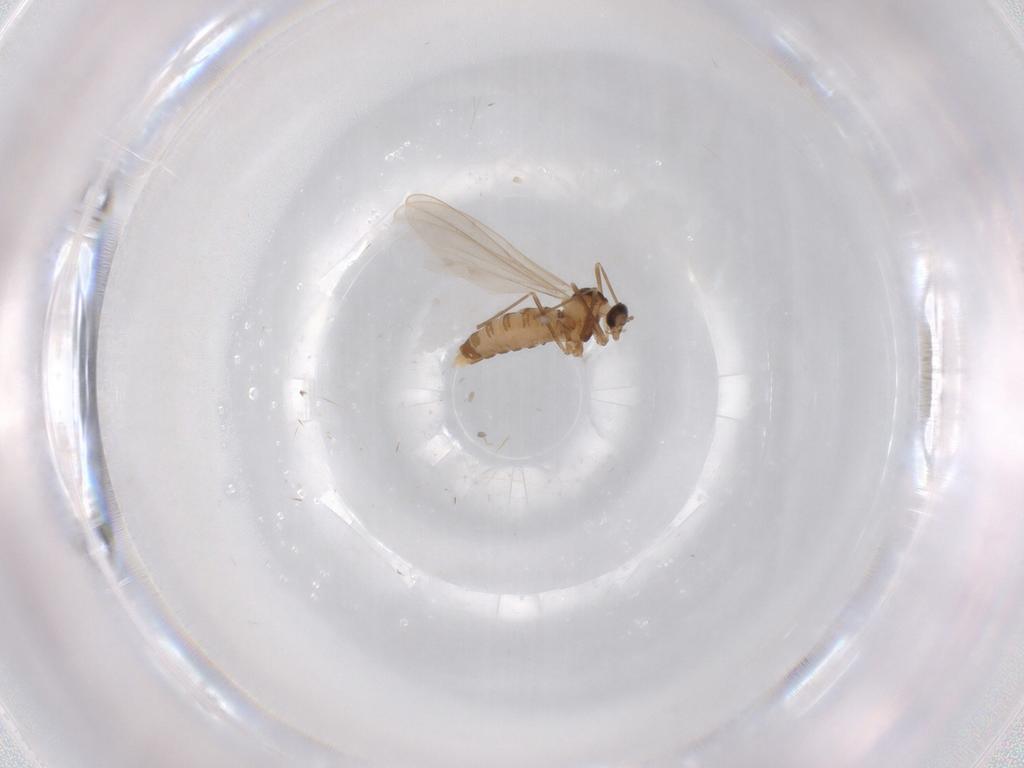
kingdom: Animalia
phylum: Arthropoda
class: Insecta
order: Diptera
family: Cecidomyiidae
